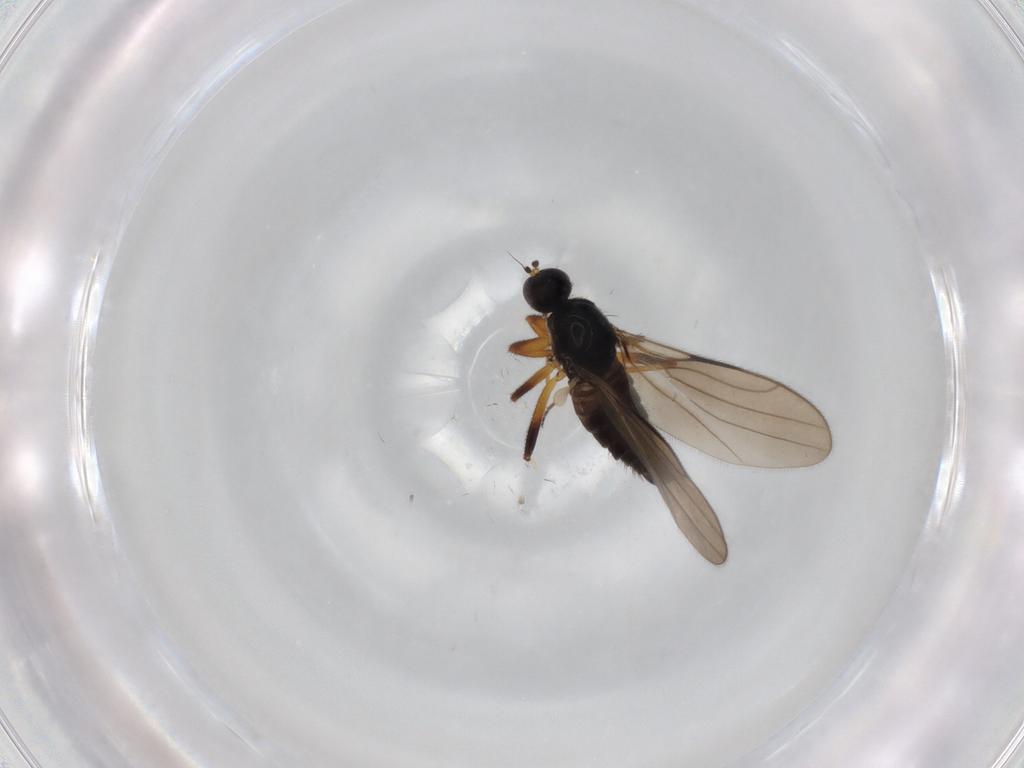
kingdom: Animalia
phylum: Arthropoda
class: Insecta
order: Diptera
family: Hybotidae
